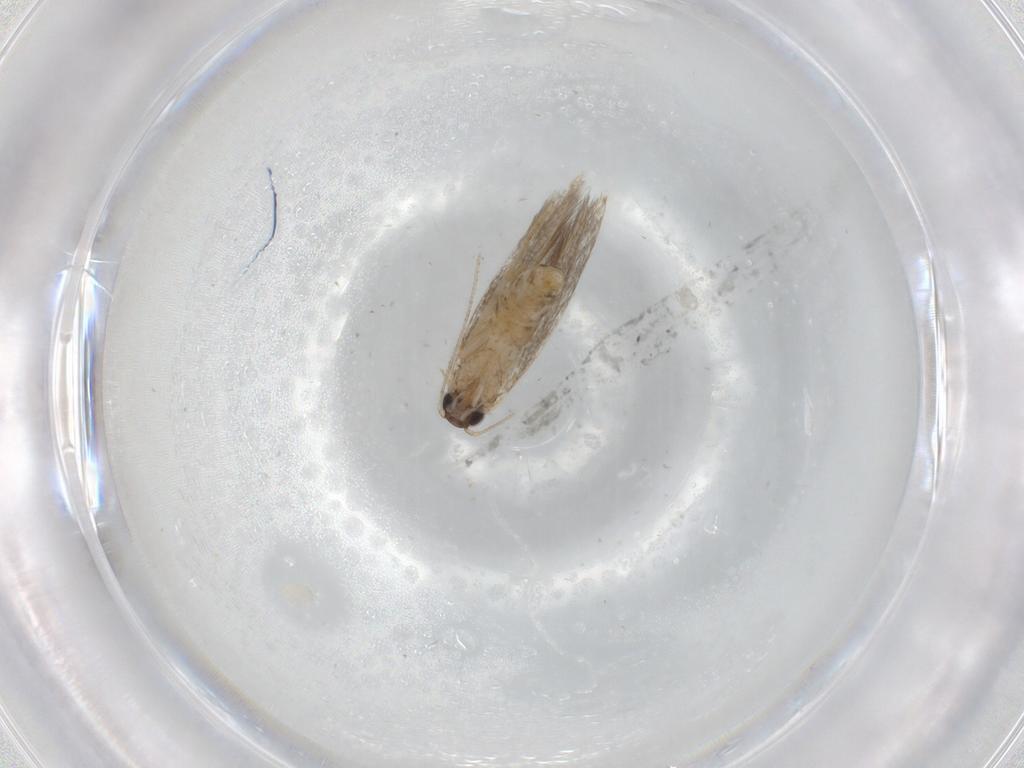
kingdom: Animalia
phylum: Arthropoda
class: Insecta
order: Lepidoptera
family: Tineidae
